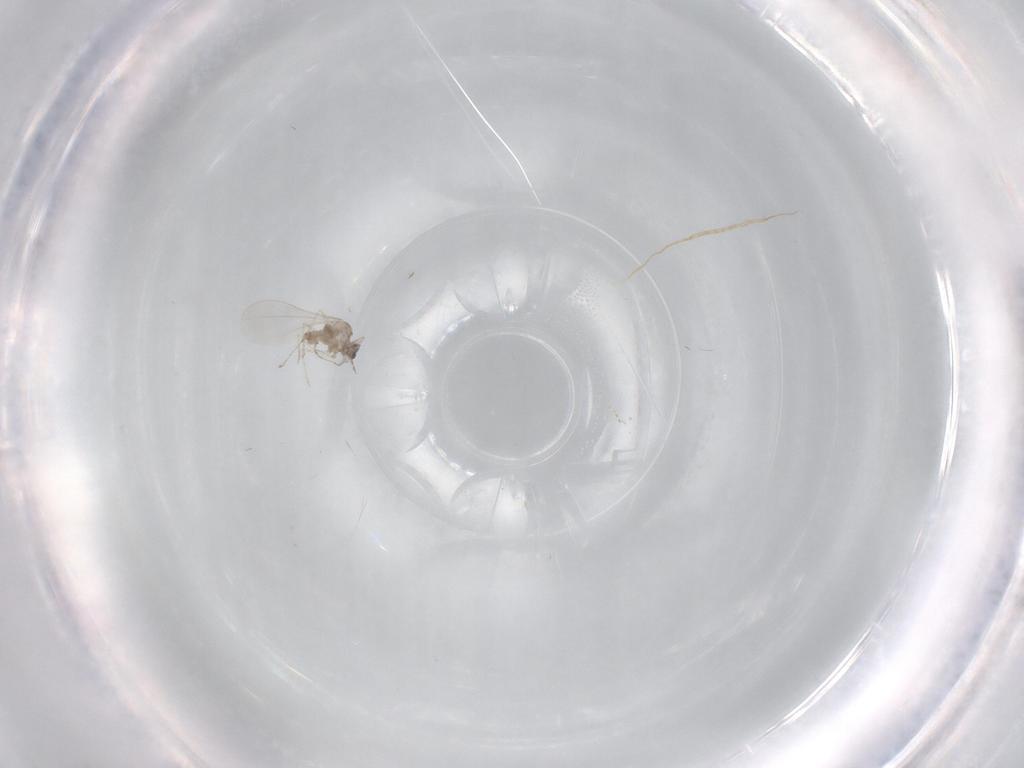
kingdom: Animalia
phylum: Arthropoda
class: Insecta
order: Diptera
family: Cecidomyiidae
